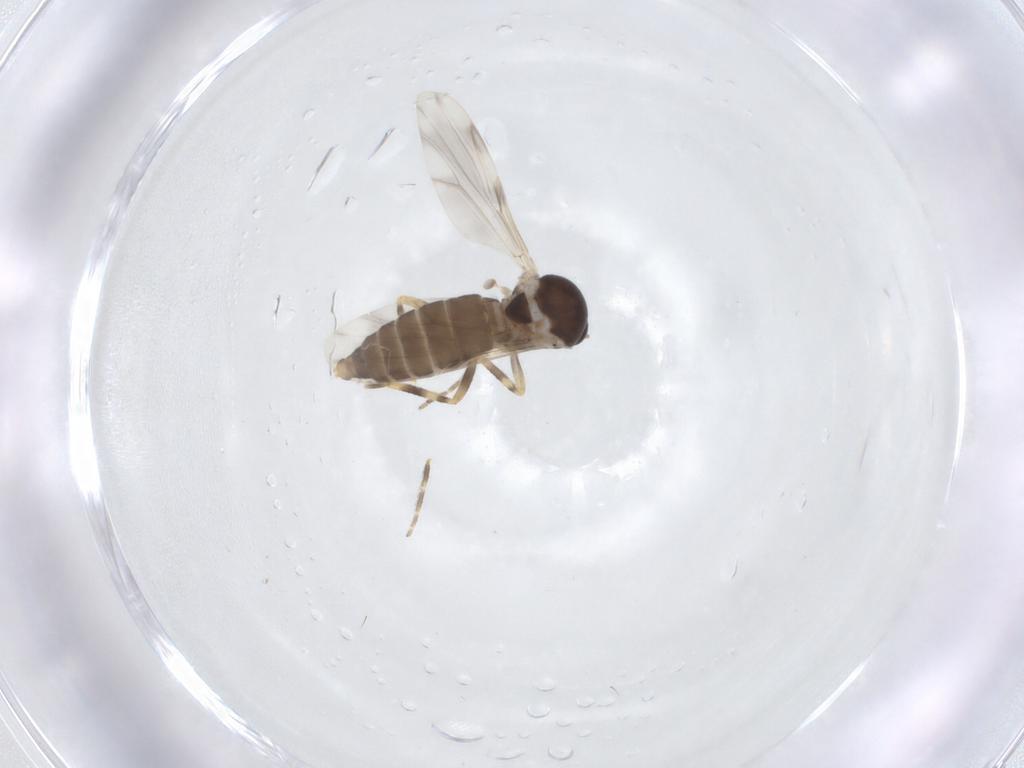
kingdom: Animalia
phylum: Arthropoda
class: Insecta
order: Diptera
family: Ceratopogonidae
